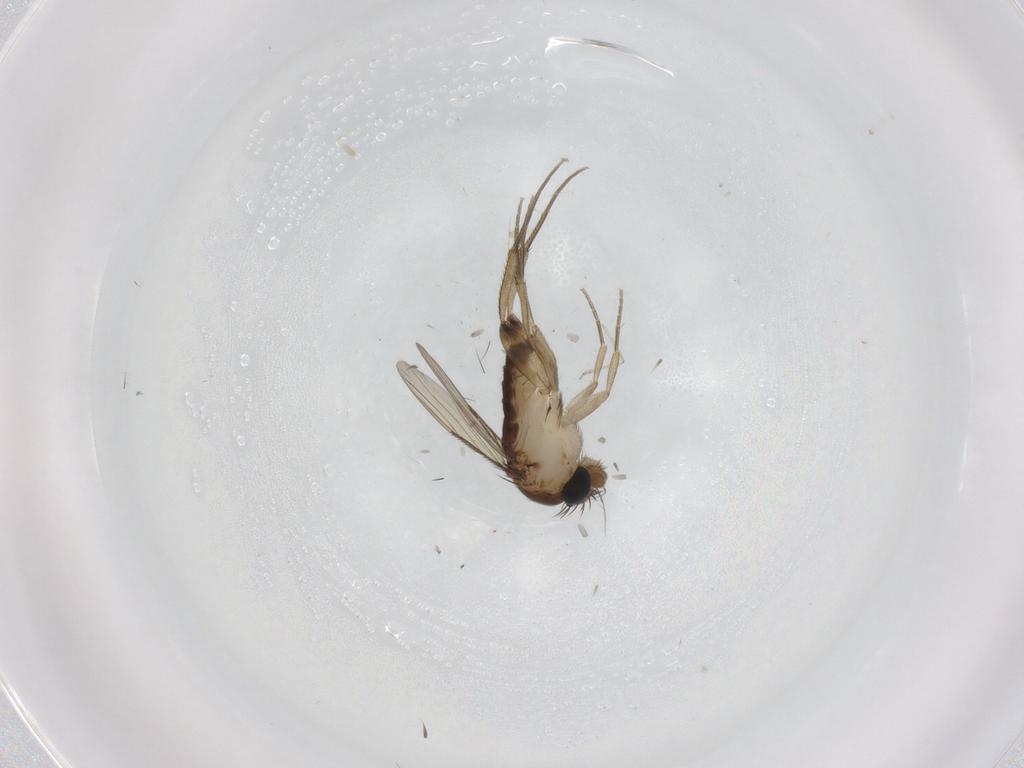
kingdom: Animalia
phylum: Arthropoda
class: Insecta
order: Diptera
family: Phoridae
